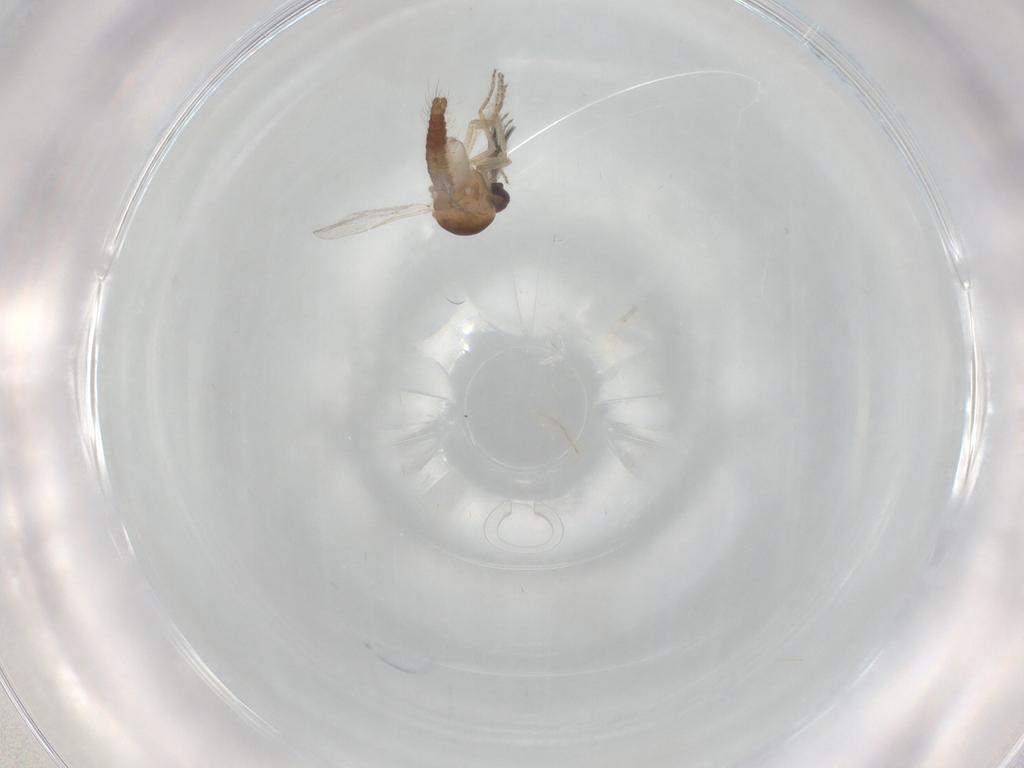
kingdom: Animalia
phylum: Arthropoda
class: Insecta
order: Diptera
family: Ceratopogonidae
